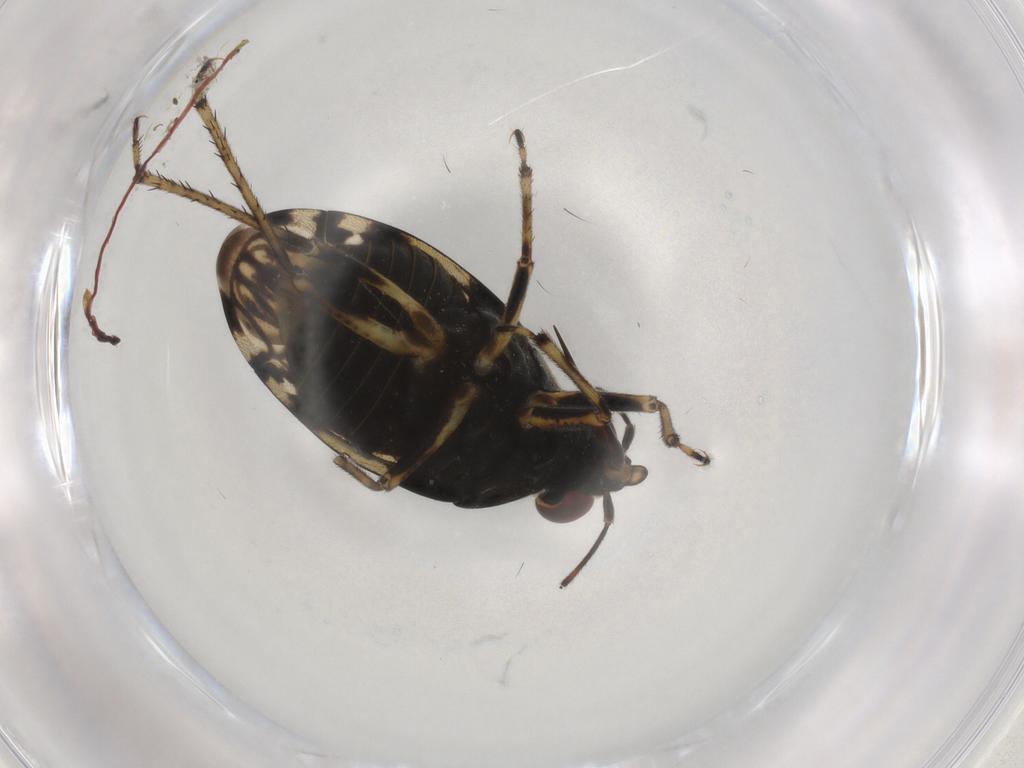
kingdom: Animalia
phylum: Arthropoda
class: Insecta
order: Hemiptera
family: Saldidae
